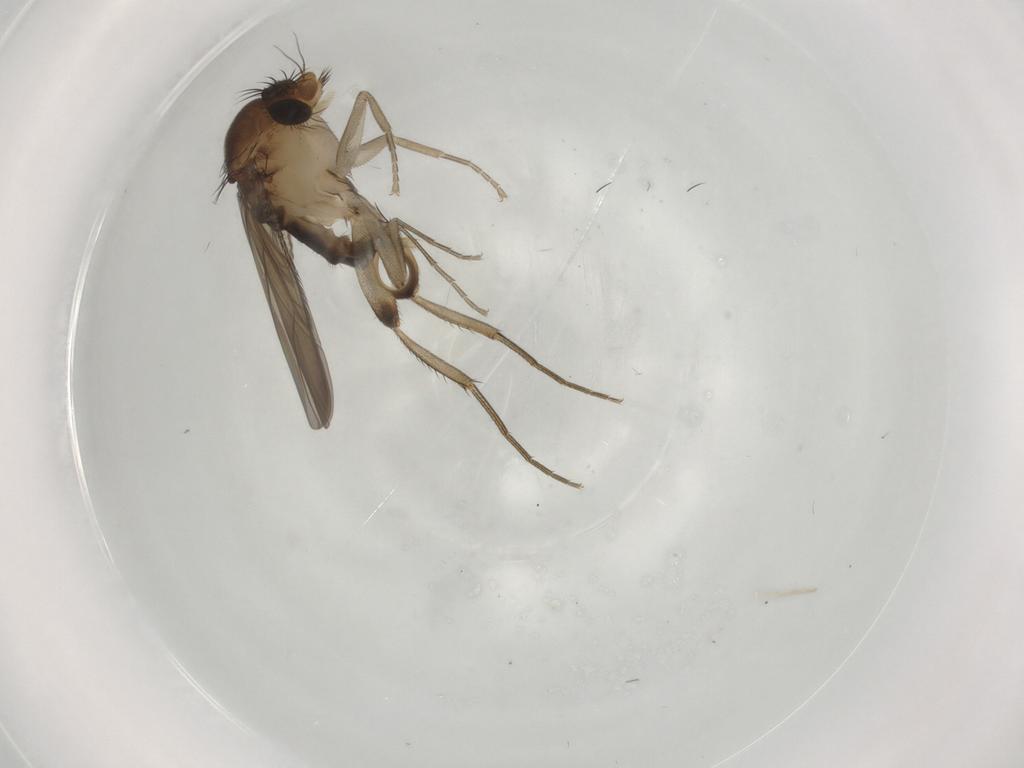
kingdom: Animalia
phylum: Arthropoda
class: Insecta
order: Diptera
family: Phoridae
